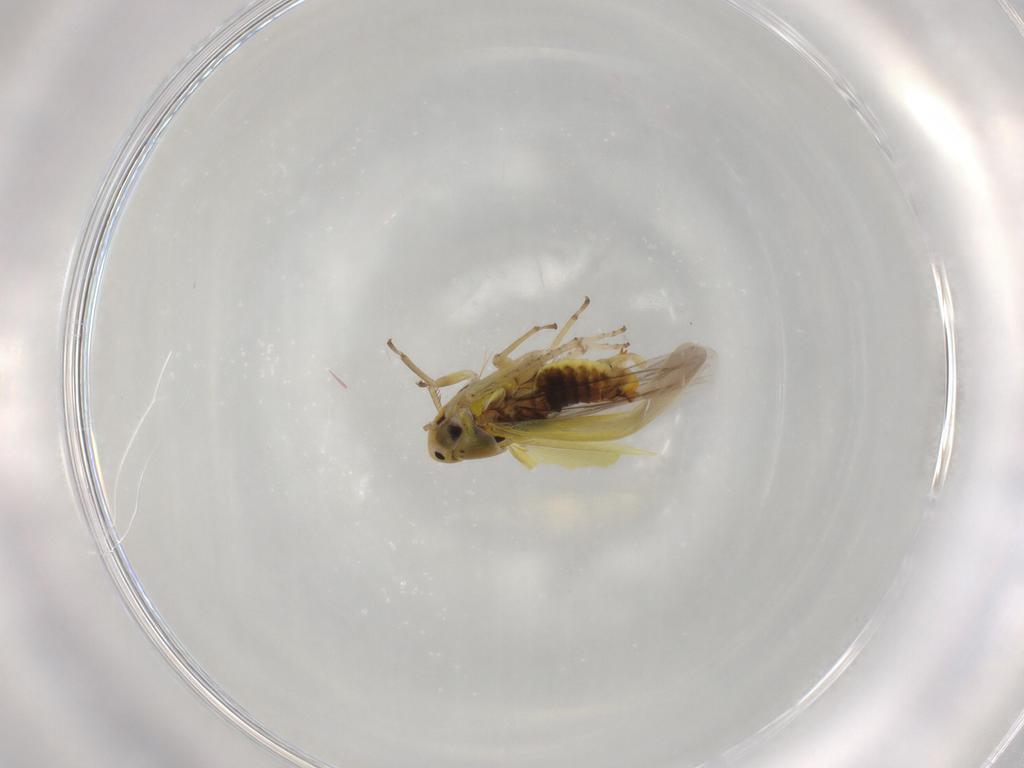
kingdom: Animalia
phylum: Arthropoda
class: Insecta
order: Hemiptera
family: Cicadellidae
